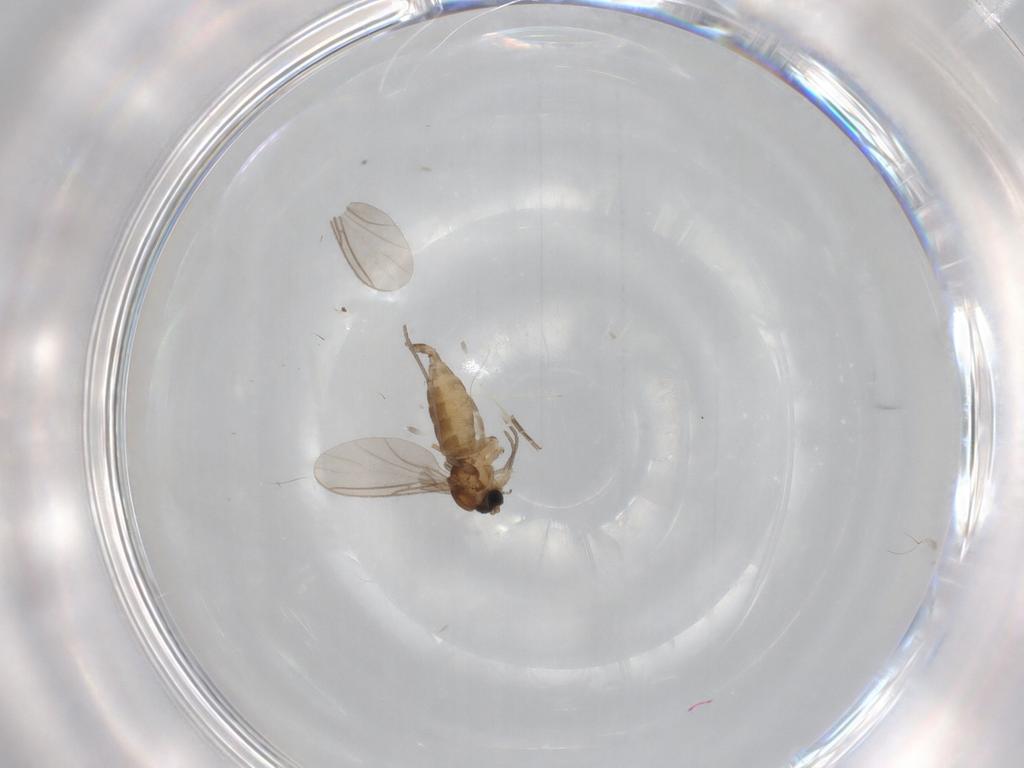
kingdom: Animalia
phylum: Arthropoda
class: Insecta
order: Diptera
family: Sciaridae
